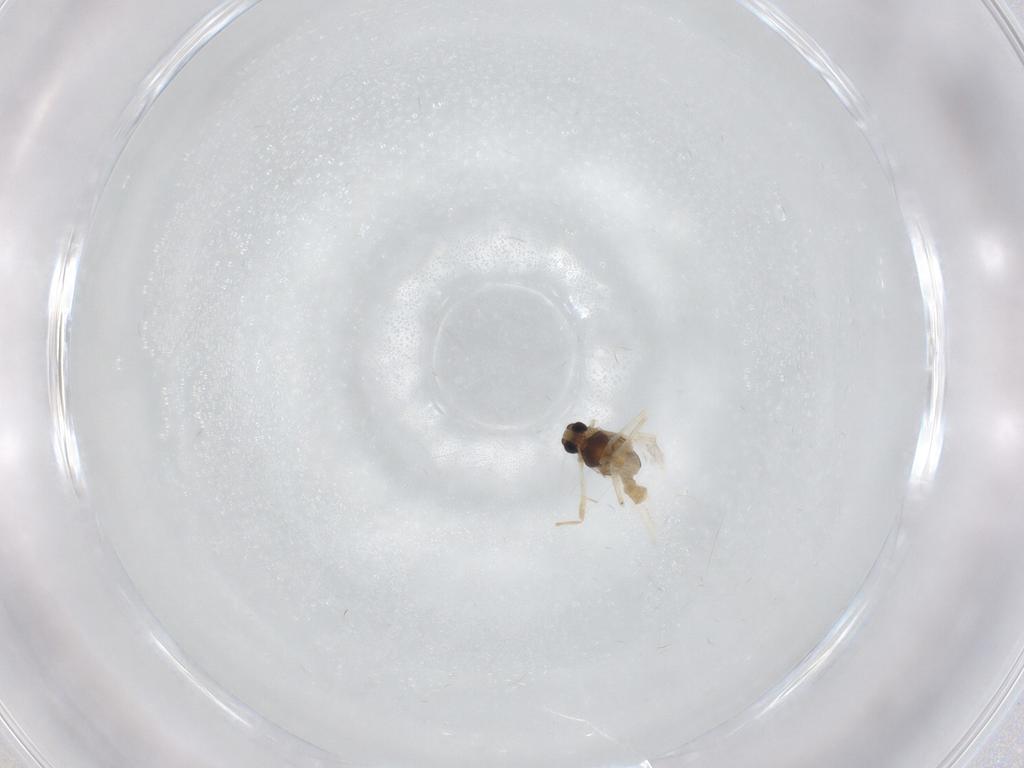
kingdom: Animalia
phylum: Arthropoda
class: Insecta
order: Diptera
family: Chironomidae
